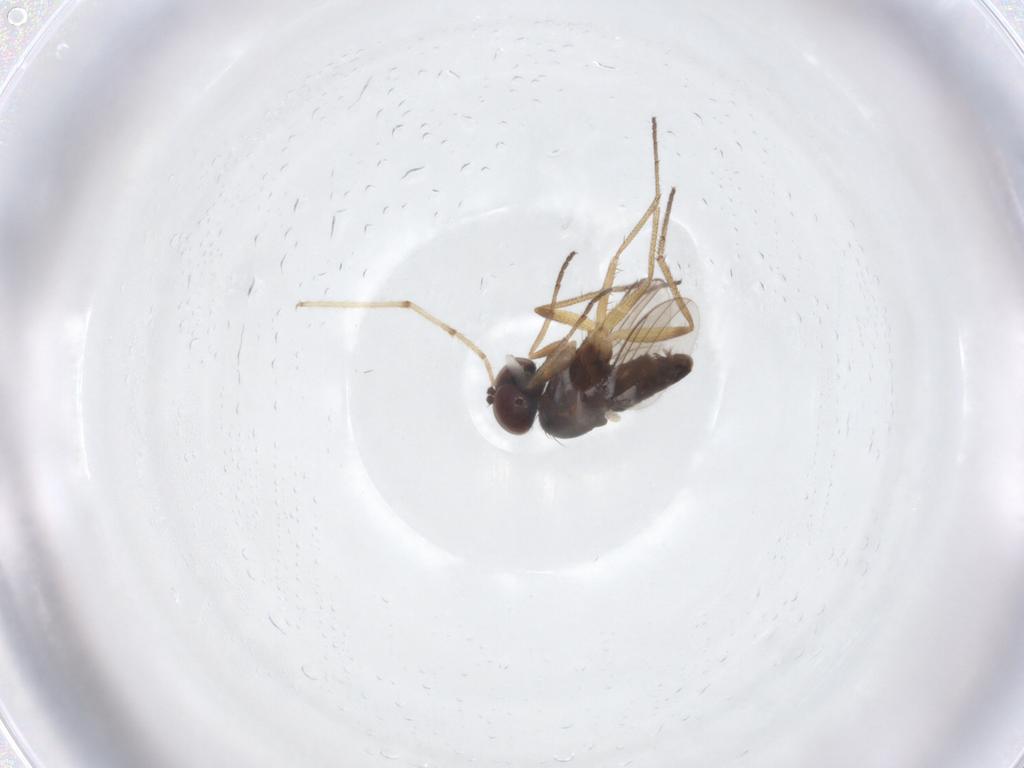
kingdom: Animalia
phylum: Arthropoda
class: Insecta
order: Diptera
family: Dolichopodidae
